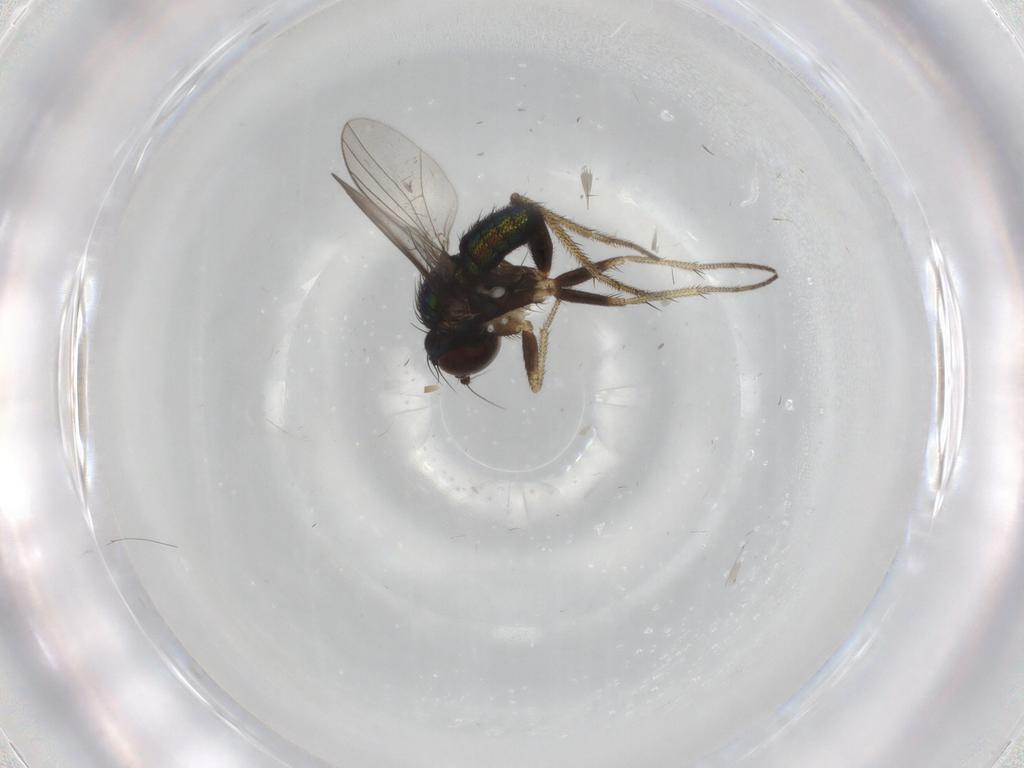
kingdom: Animalia
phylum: Arthropoda
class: Insecta
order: Diptera
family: Dolichopodidae
